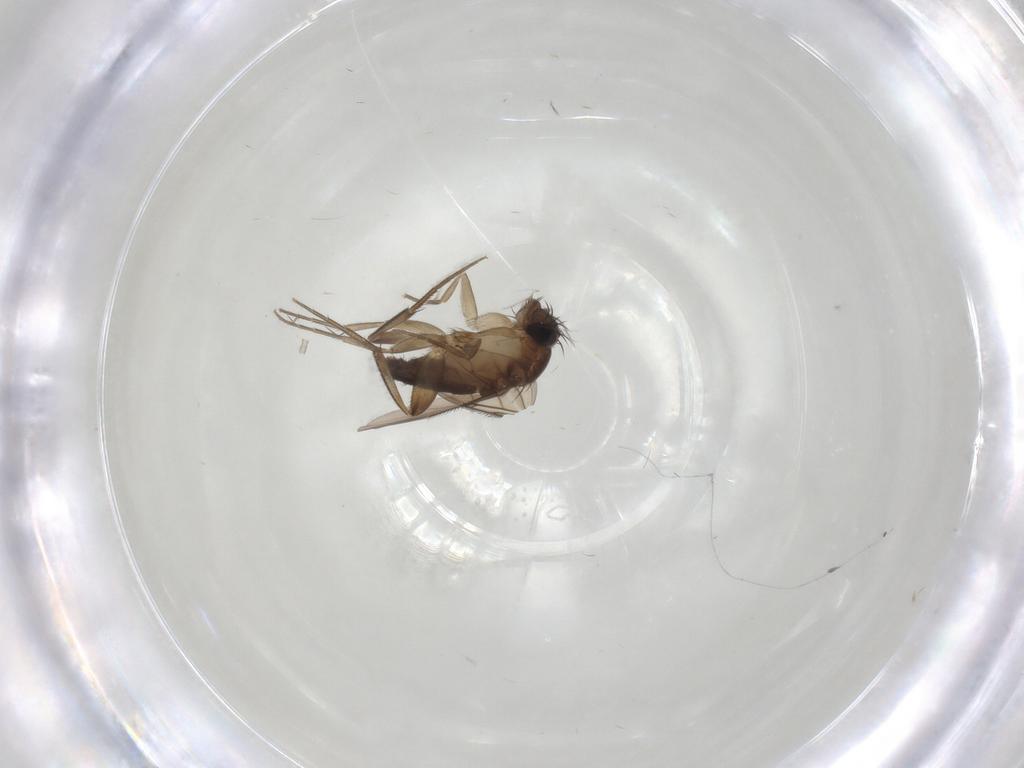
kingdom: Animalia
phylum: Arthropoda
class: Insecta
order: Diptera
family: Phoridae
